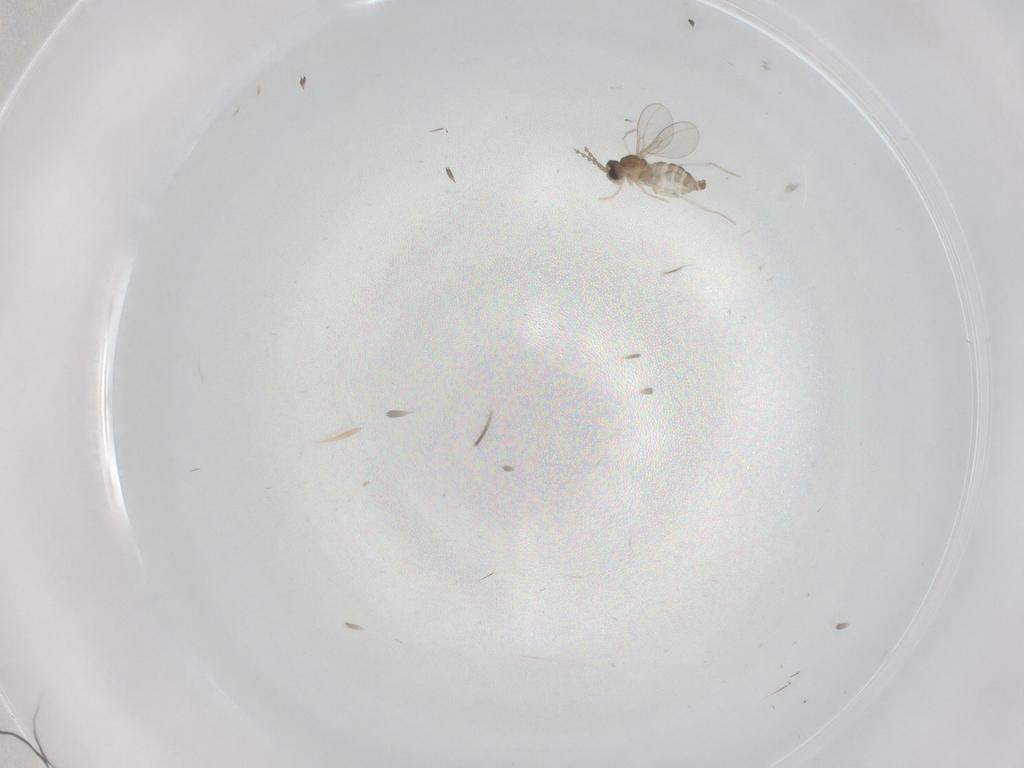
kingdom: Animalia
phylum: Arthropoda
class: Insecta
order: Diptera
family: Cecidomyiidae
